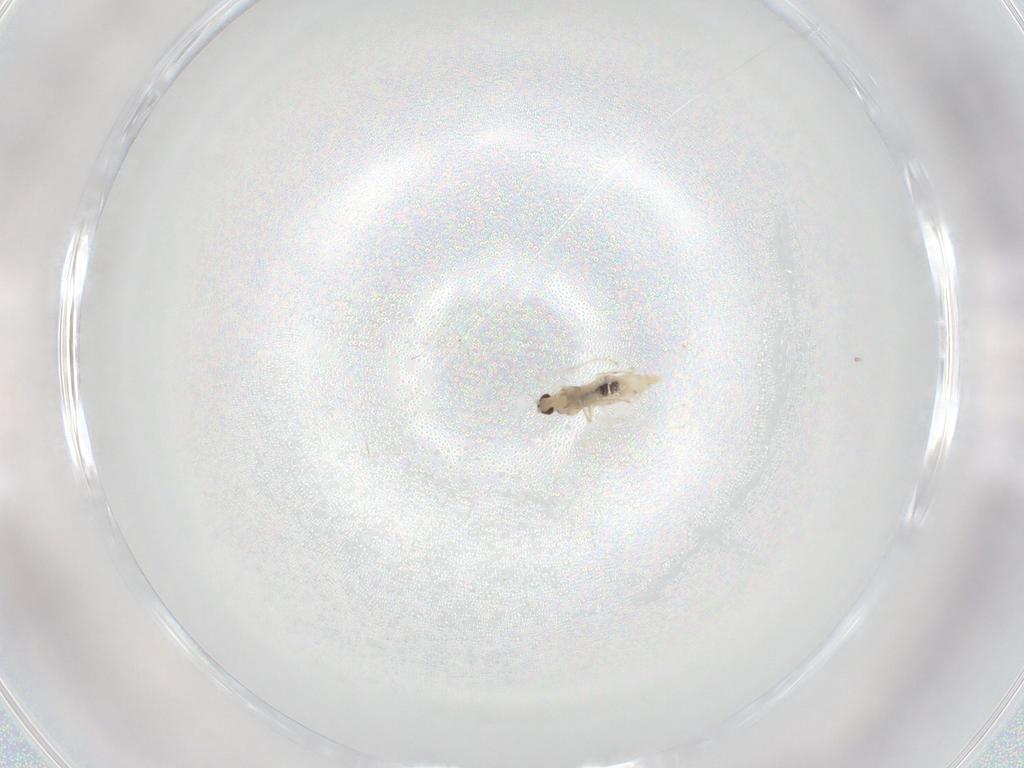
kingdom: Animalia
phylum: Arthropoda
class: Insecta
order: Diptera
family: Cecidomyiidae
